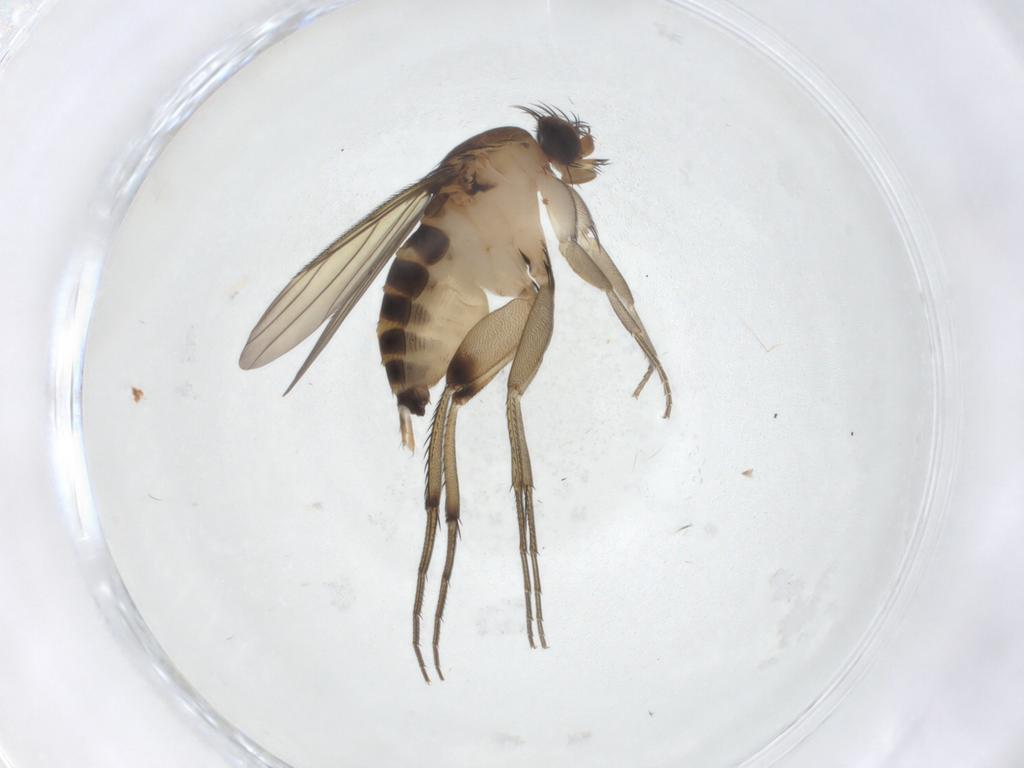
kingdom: Animalia
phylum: Arthropoda
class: Insecta
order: Diptera
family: Phoridae
